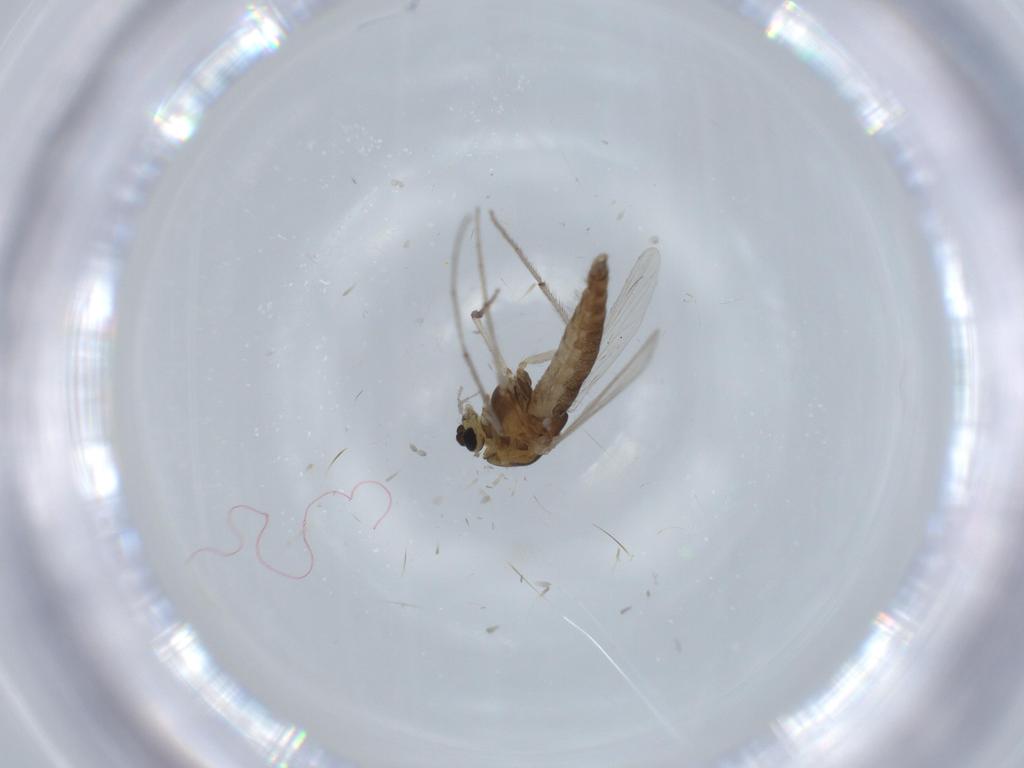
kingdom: Animalia
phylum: Arthropoda
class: Insecta
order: Diptera
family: Chironomidae
